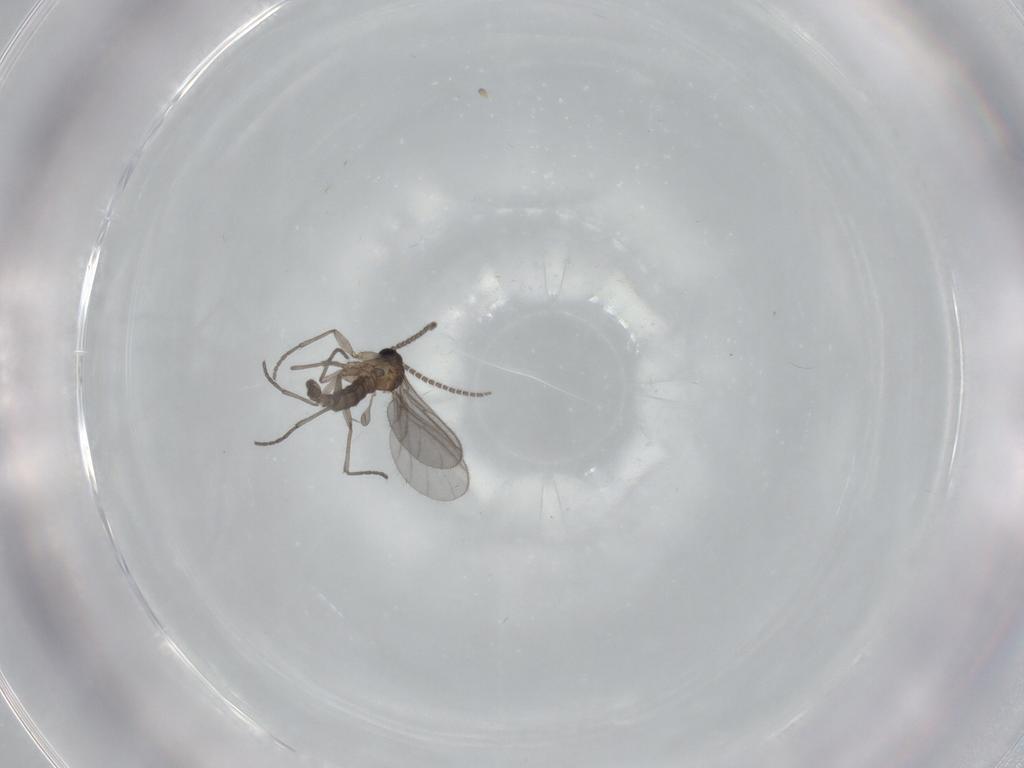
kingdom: Animalia
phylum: Arthropoda
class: Insecta
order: Diptera
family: Sciaridae
